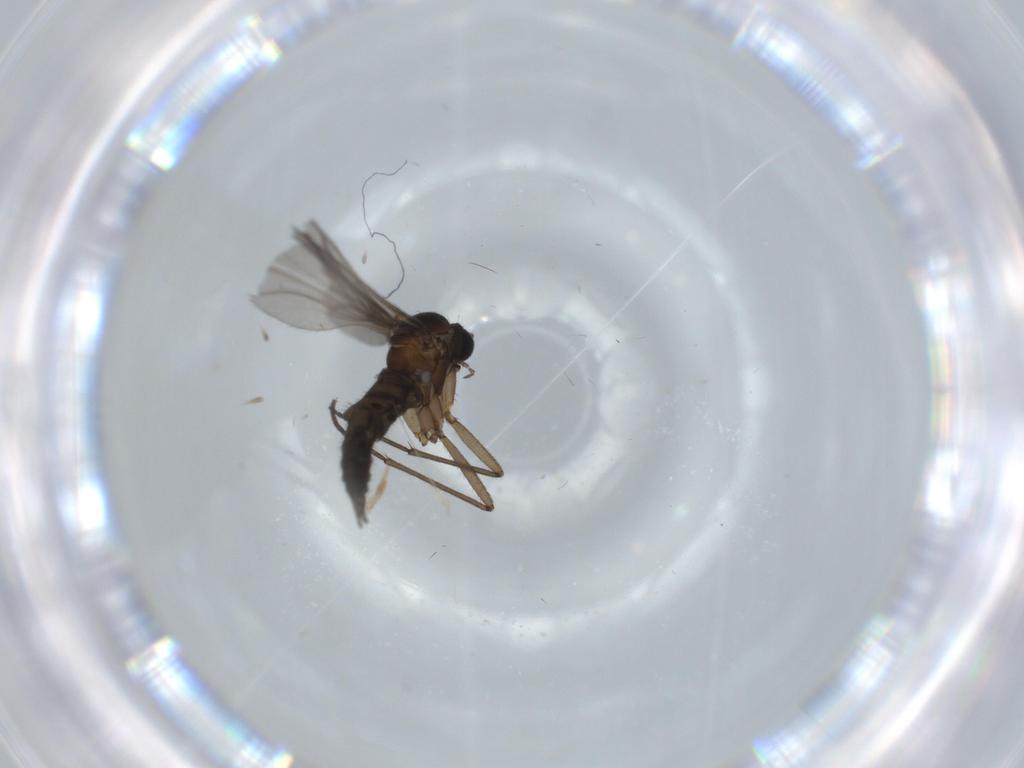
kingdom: Animalia
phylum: Arthropoda
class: Insecta
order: Diptera
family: Sciaridae
